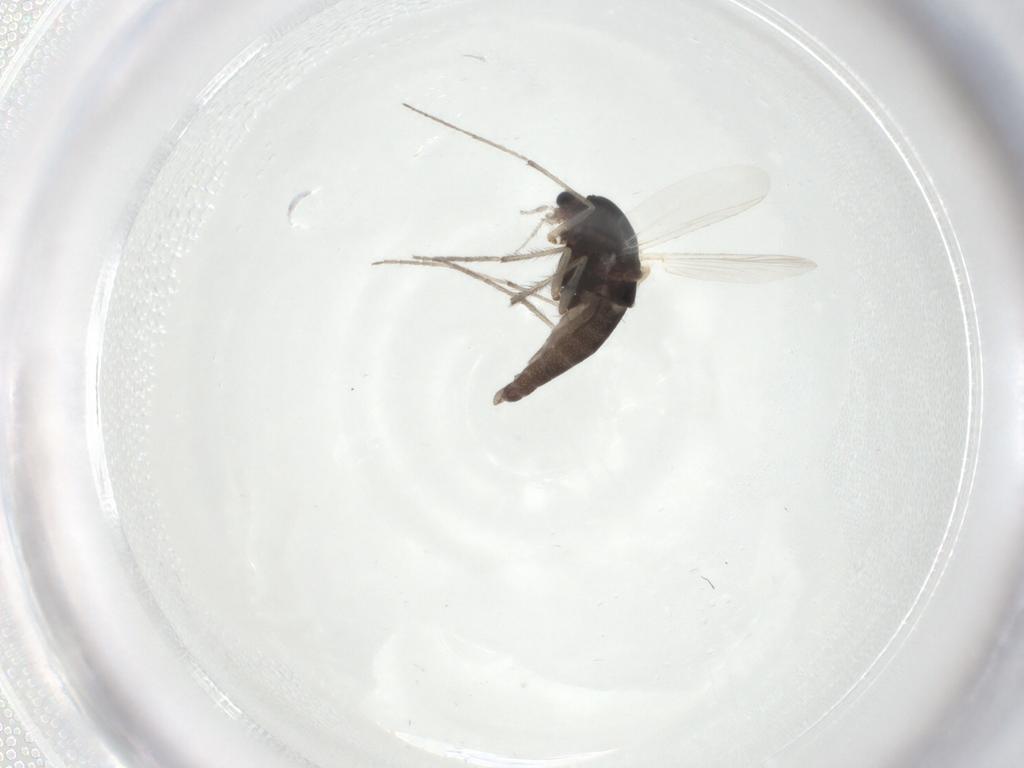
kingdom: Animalia
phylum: Arthropoda
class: Insecta
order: Diptera
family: Chironomidae
